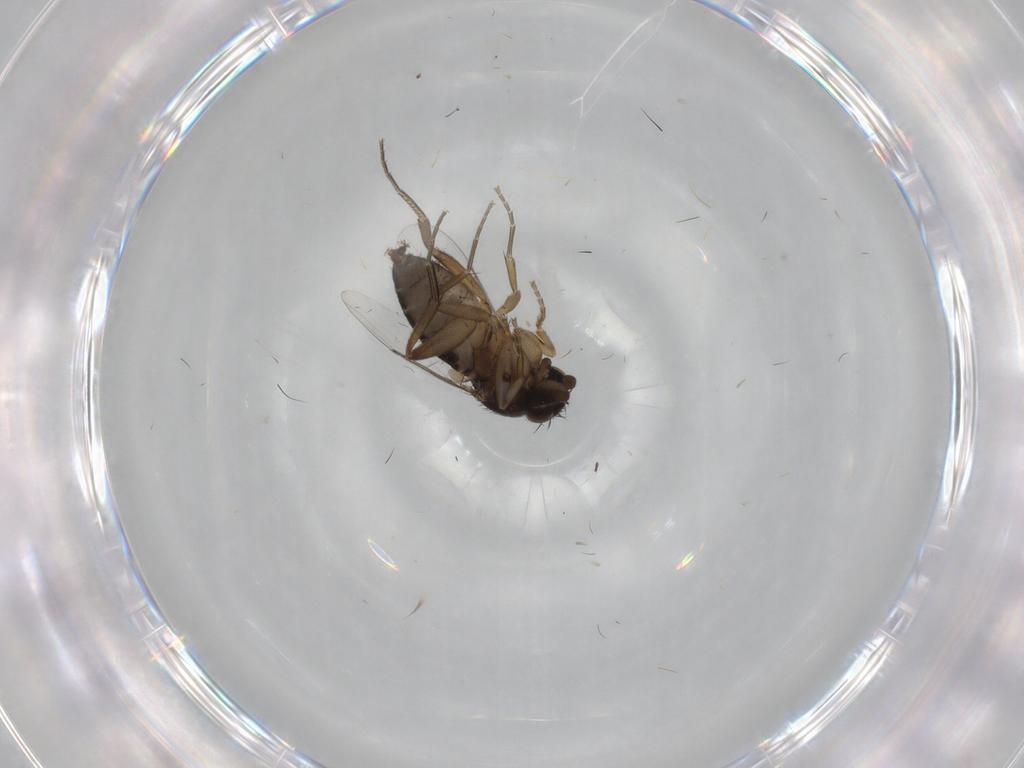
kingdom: Animalia
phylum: Arthropoda
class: Insecta
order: Diptera
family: Phoridae
